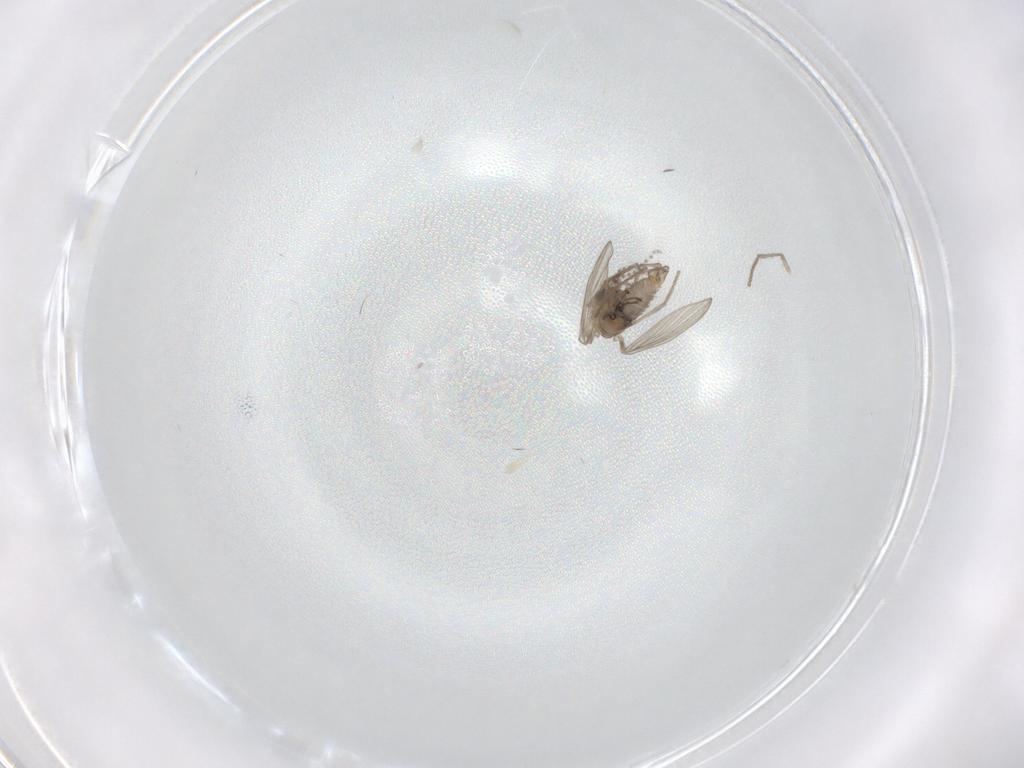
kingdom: Animalia
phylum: Arthropoda
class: Insecta
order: Diptera
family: Psychodidae
